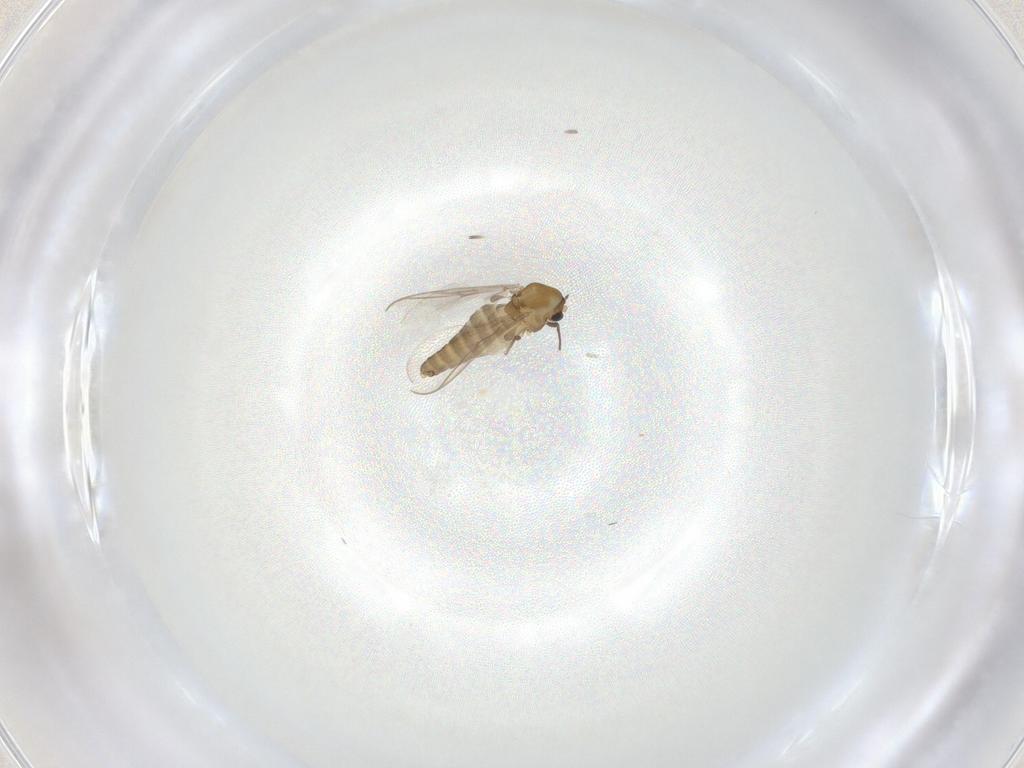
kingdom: Animalia
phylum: Arthropoda
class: Insecta
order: Diptera
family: Chironomidae
